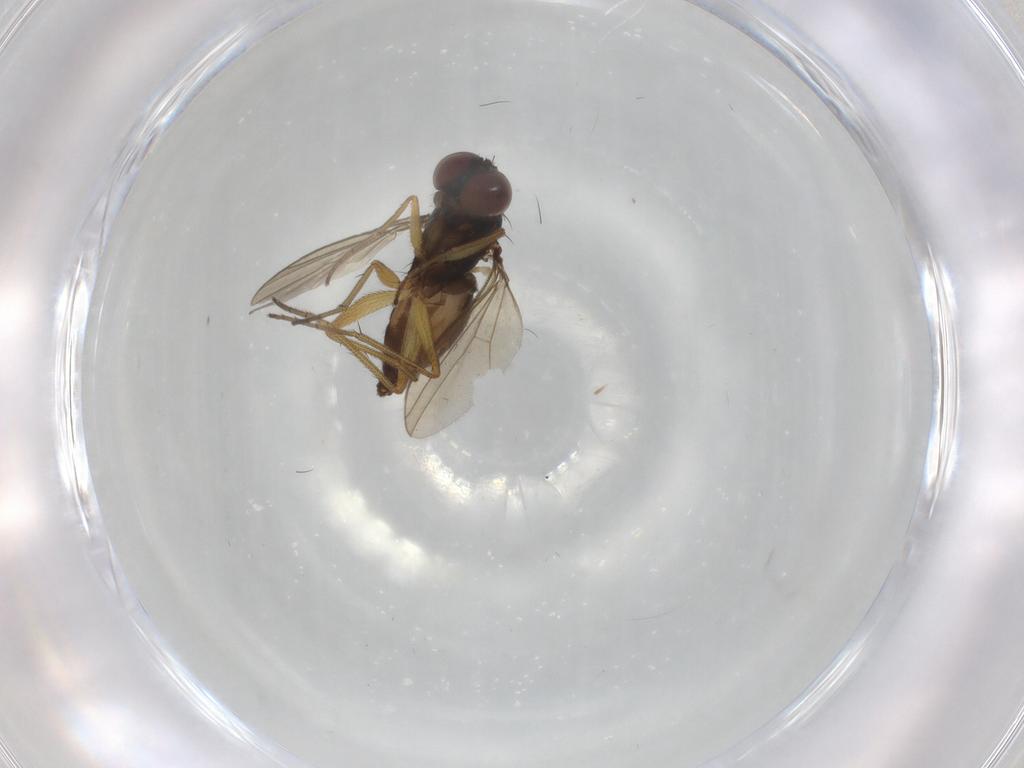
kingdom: Animalia
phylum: Arthropoda
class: Insecta
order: Diptera
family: Dolichopodidae
